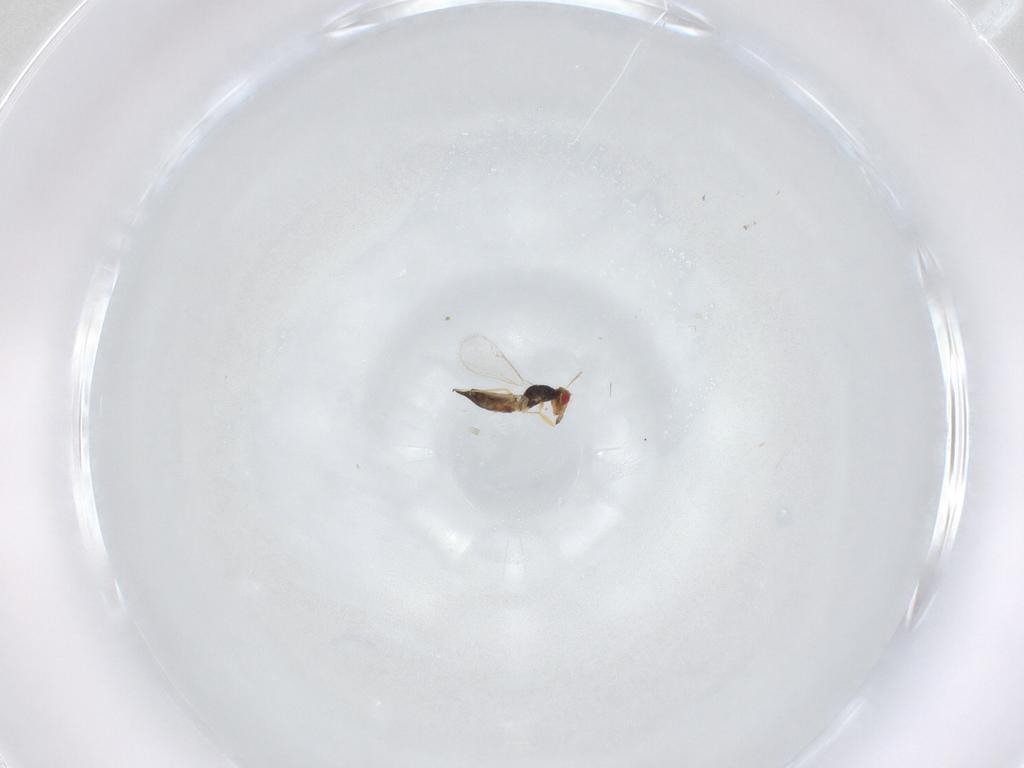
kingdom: Animalia
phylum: Arthropoda
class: Insecta
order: Hymenoptera
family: Eulophidae
